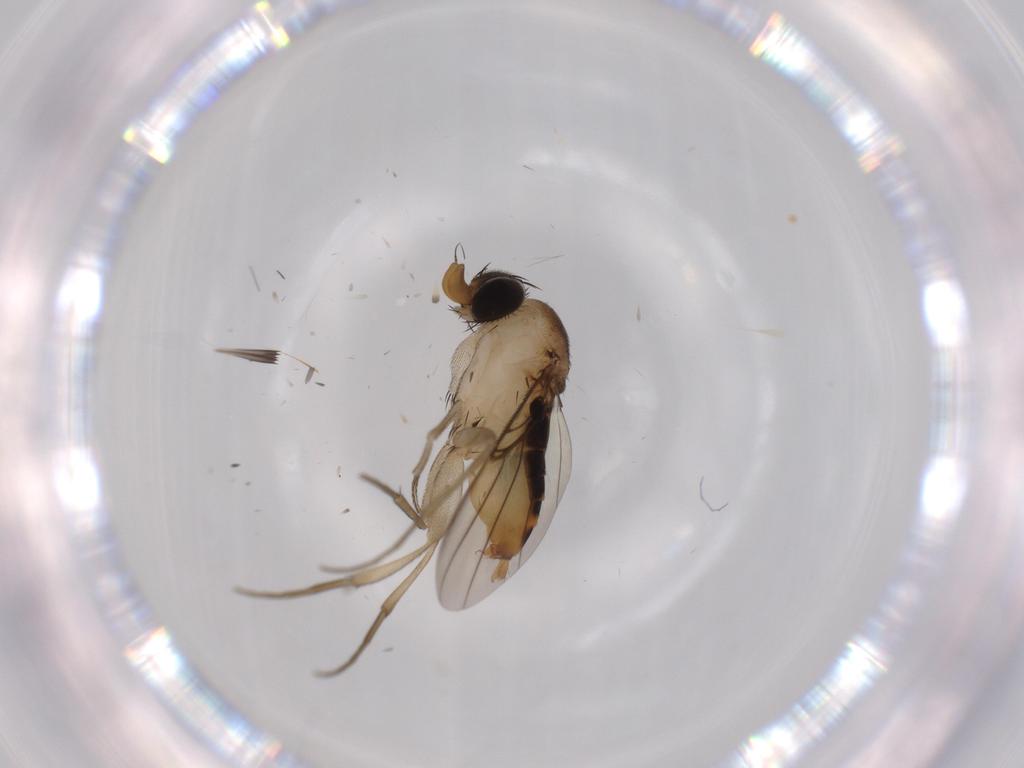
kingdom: Animalia
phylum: Arthropoda
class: Insecta
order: Diptera
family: Phoridae
